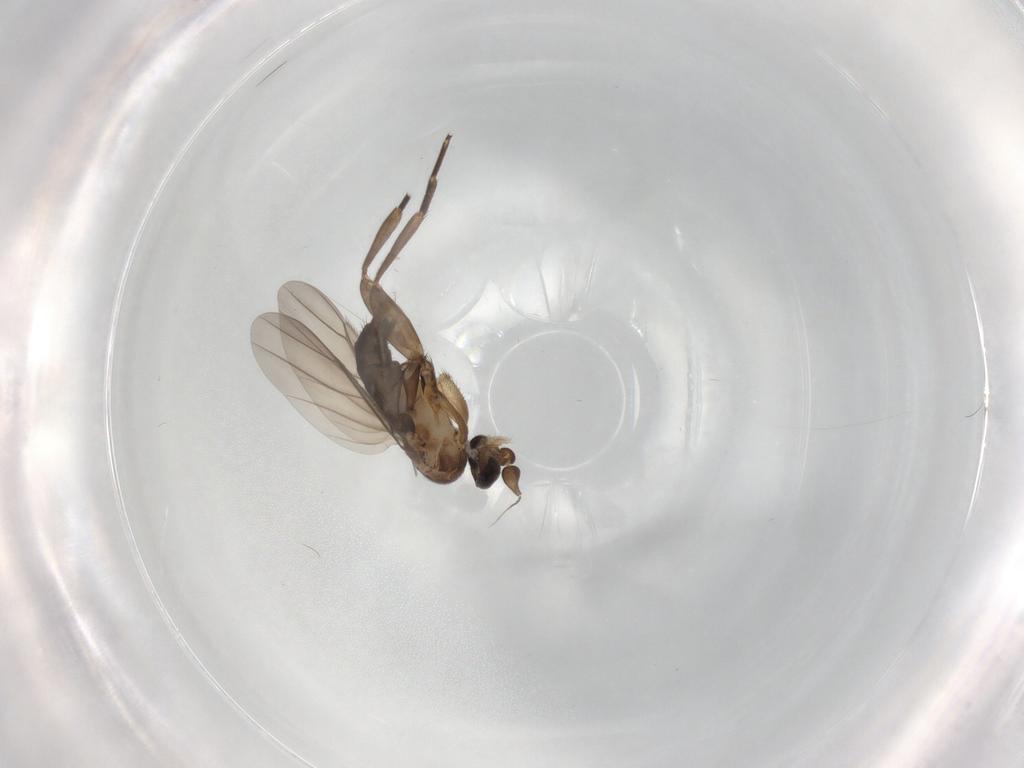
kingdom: Animalia
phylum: Arthropoda
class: Insecta
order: Diptera
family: Phoridae
